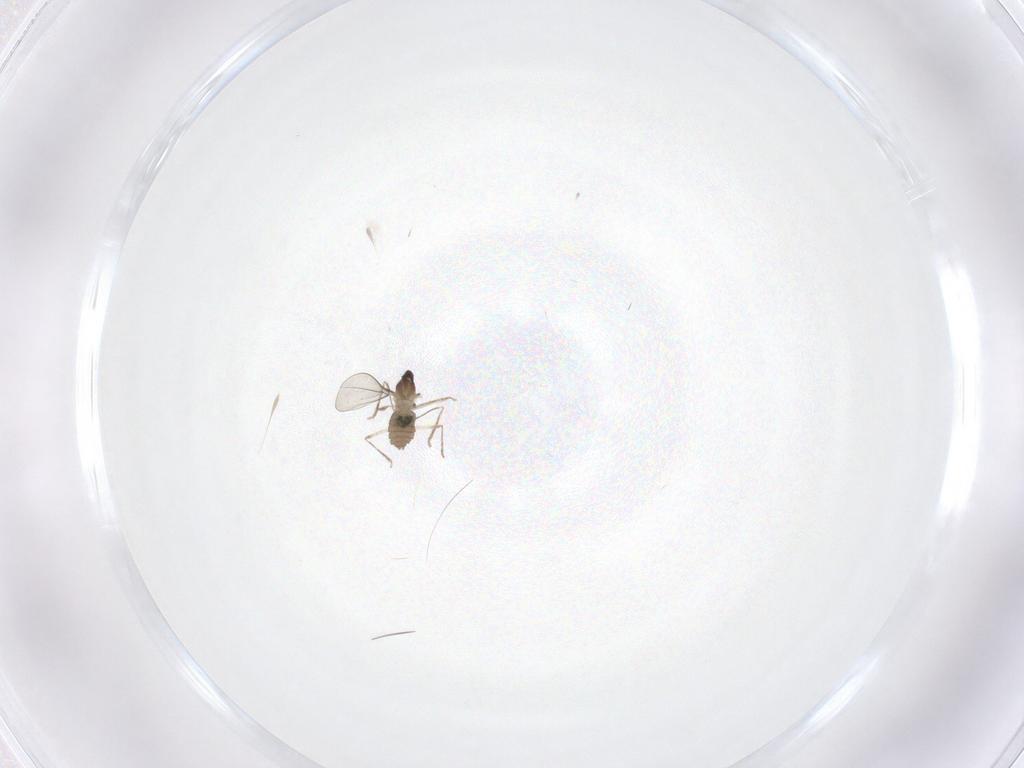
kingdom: Animalia
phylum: Arthropoda
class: Insecta
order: Diptera
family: Cecidomyiidae
